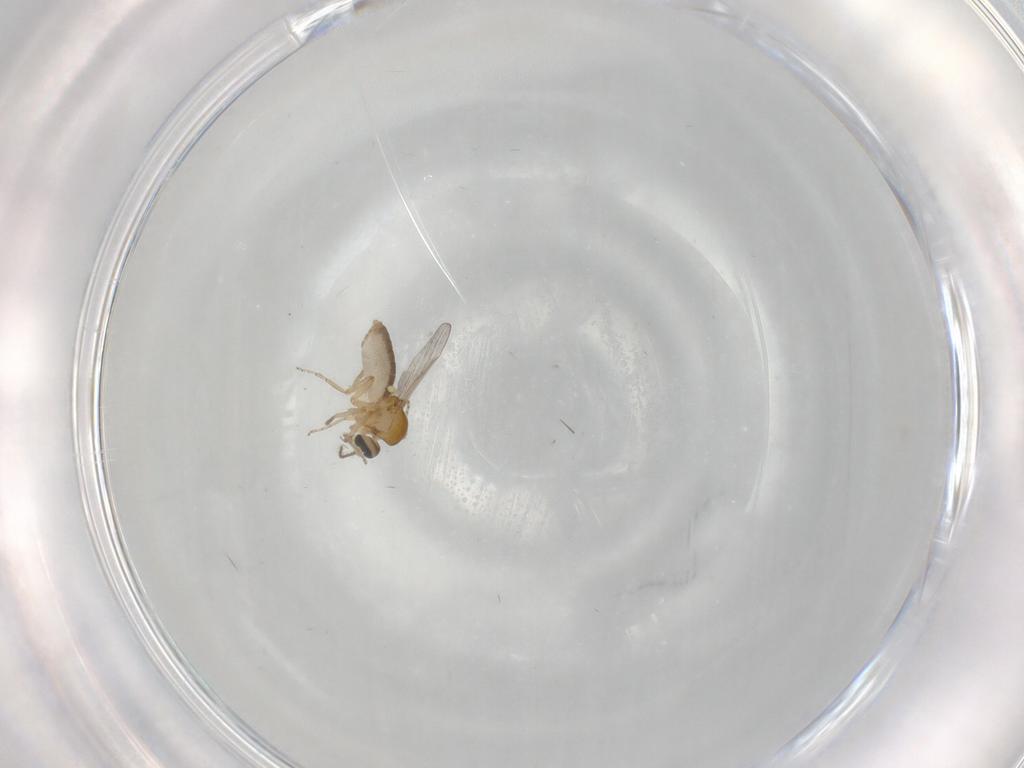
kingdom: Animalia
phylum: Arthropoda
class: Insecta
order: Diptera
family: Ceratopogonidae
